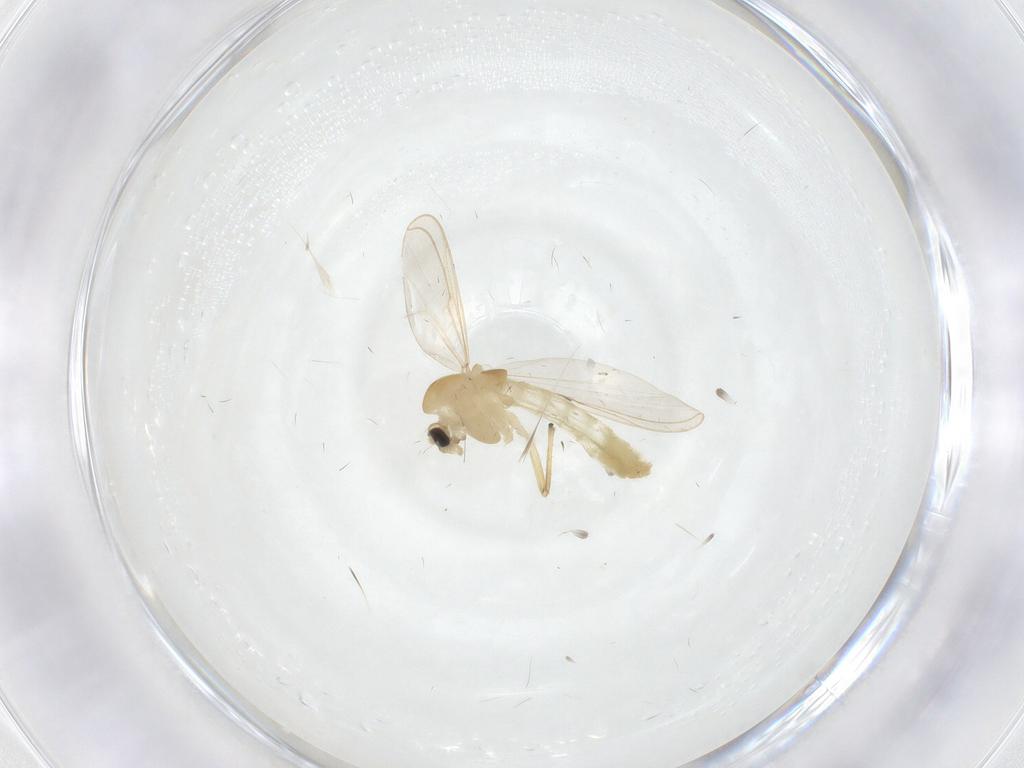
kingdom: Animalia
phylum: Arthropoda
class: Insecta
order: Diptera
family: Chironomidae
